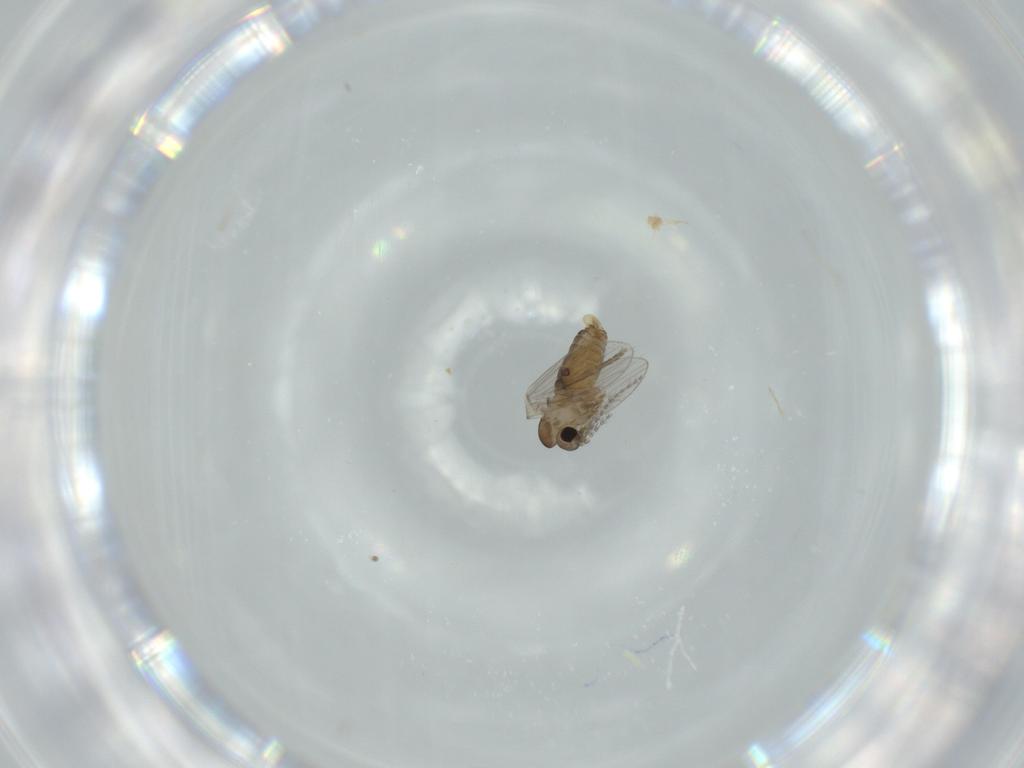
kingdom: Animalia
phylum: Arthropoda
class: Insecta
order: Diptera
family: Psychodidae
